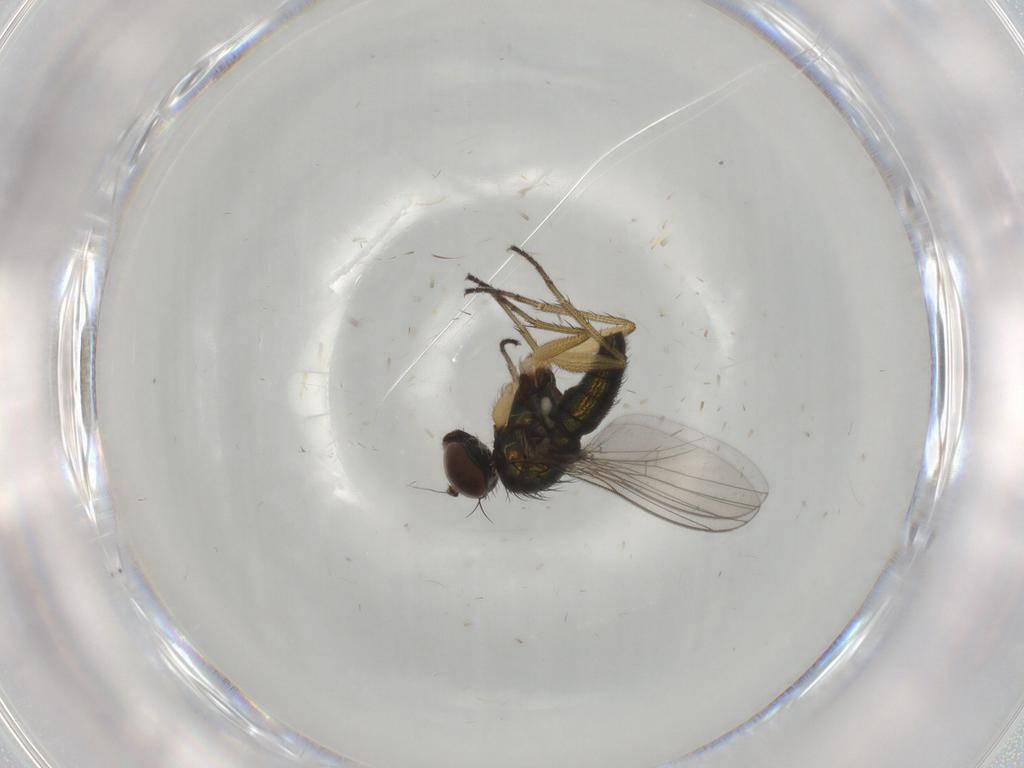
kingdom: Animalia
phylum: Arthropoda
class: Insecta
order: Diptera
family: Dolichopodidae
